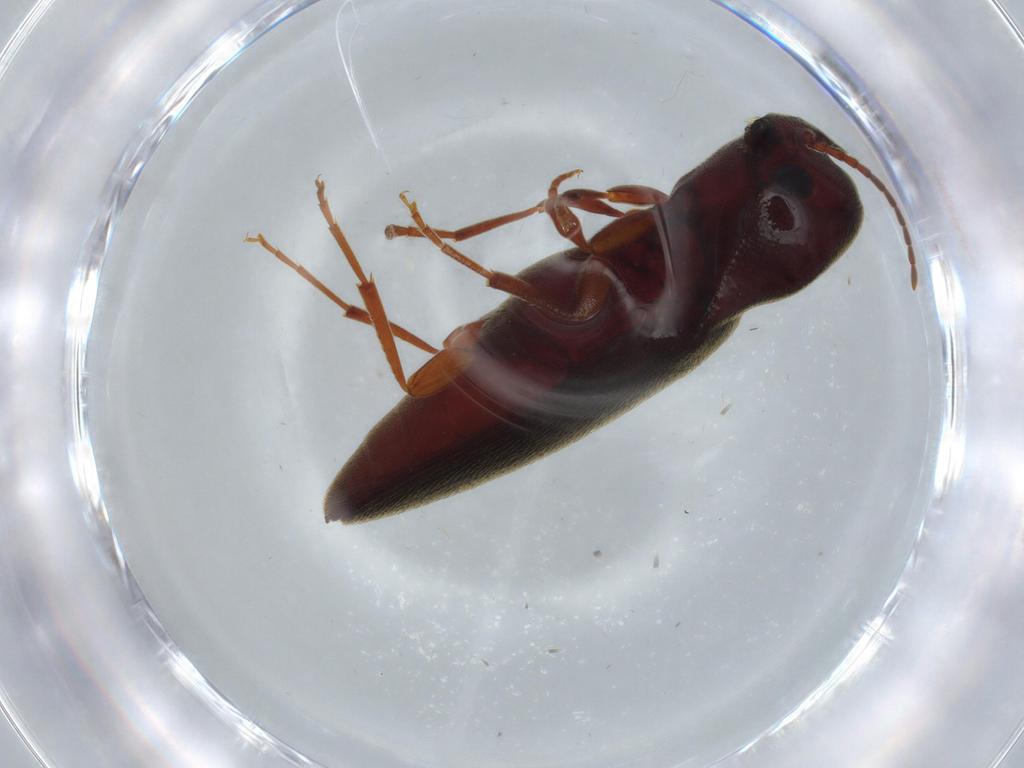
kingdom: Animalia
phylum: Arthropoda
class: Insecta
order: Coleoptera
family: Eucnemidae
